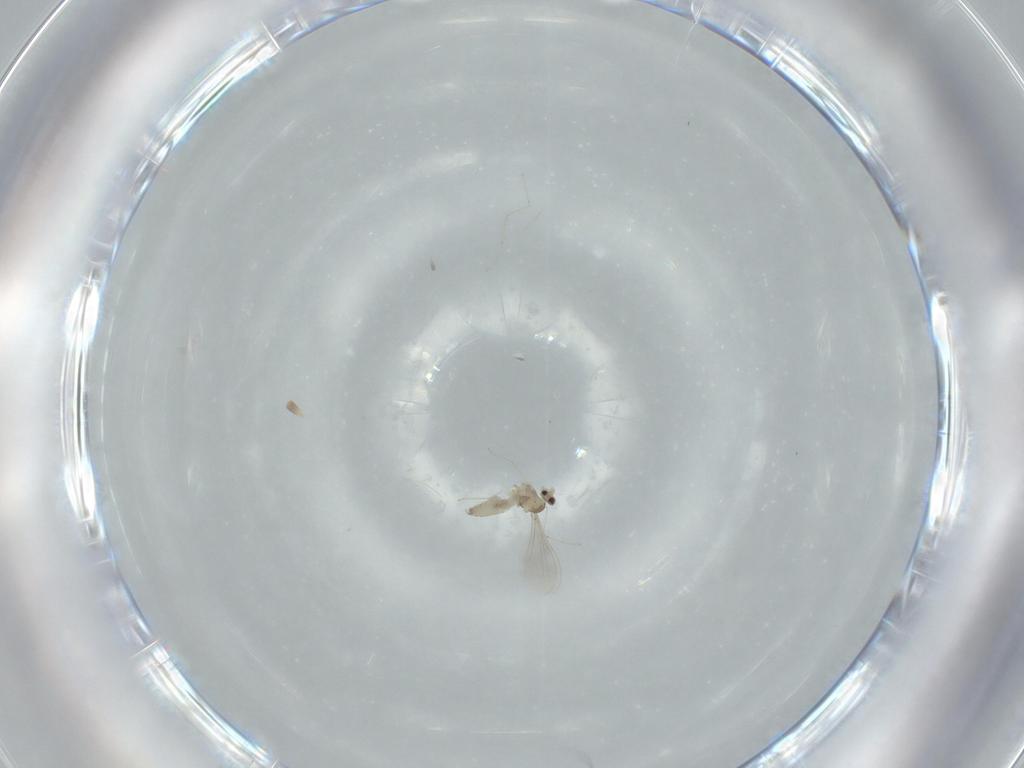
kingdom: Animalia
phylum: Arthropoda
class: Insecta
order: Diptera
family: Cecidomyiidae
